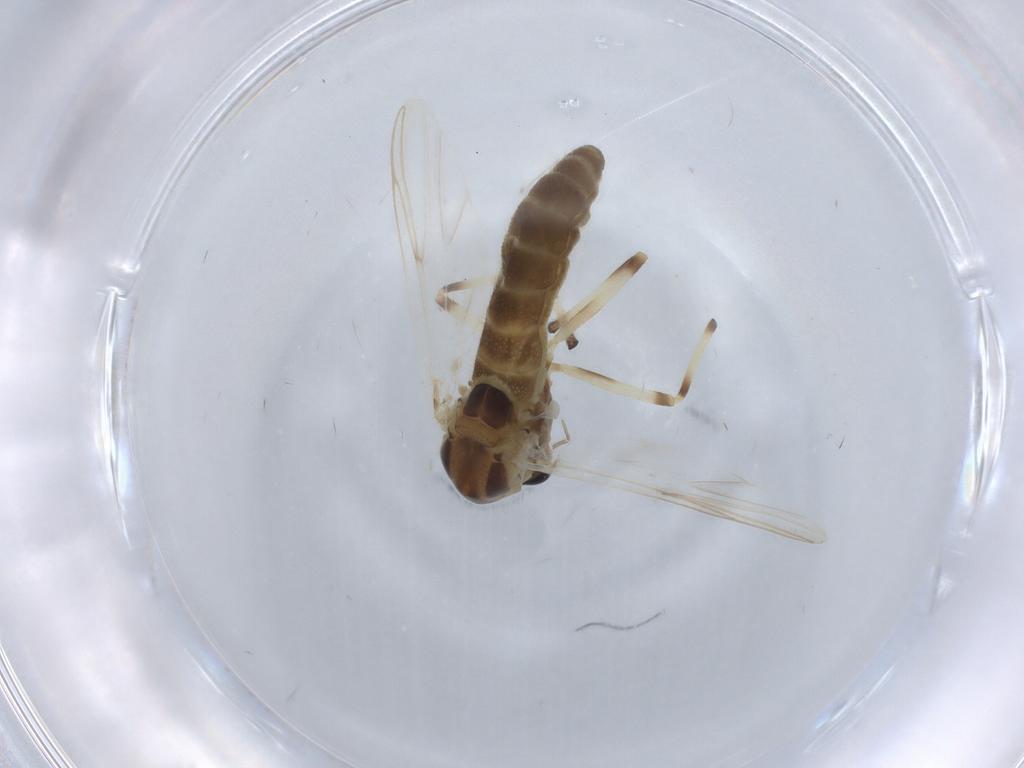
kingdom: Animalia
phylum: Arthropoda
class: Insecta
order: Diptera
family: Chironomidae
